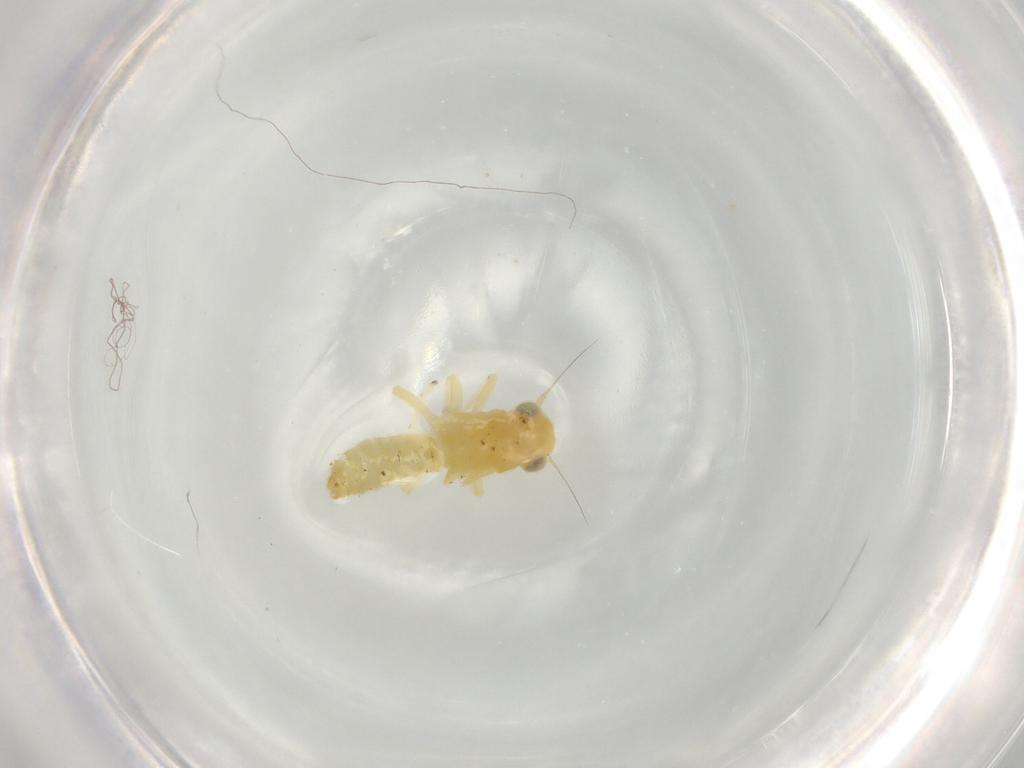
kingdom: Animalia
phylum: Arthropoda
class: Insecta
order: Hemiptera
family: Cicadellidae
